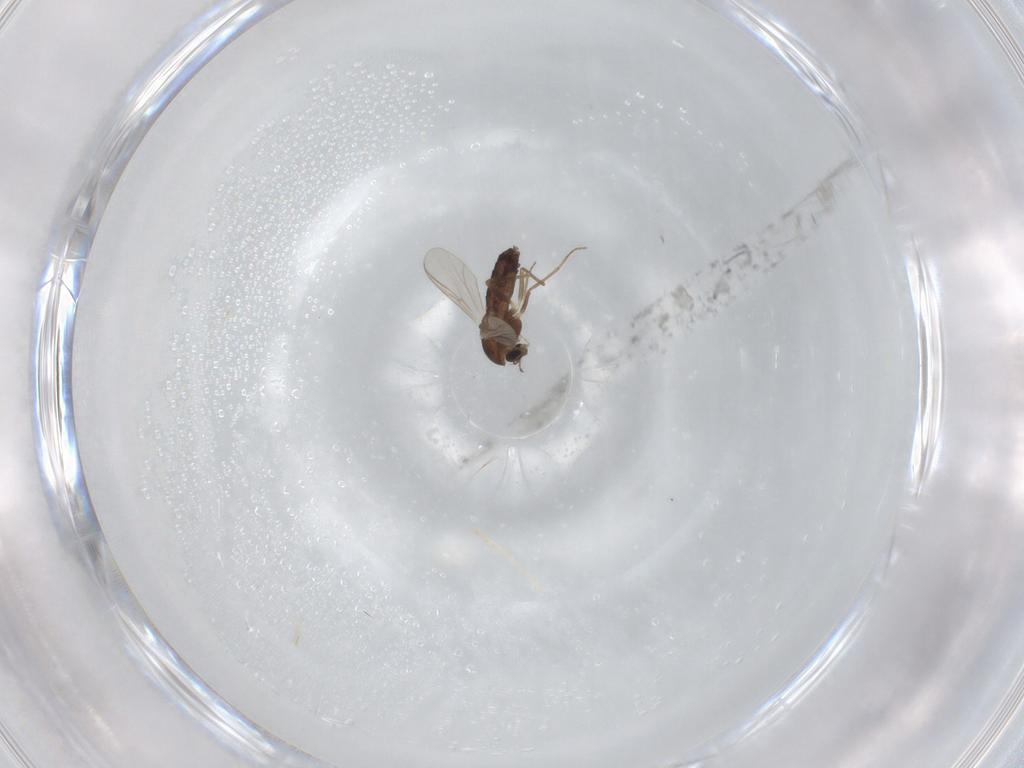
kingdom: Animalia
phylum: Arthropoda
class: Insecta
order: Diptera
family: Chironomidae
